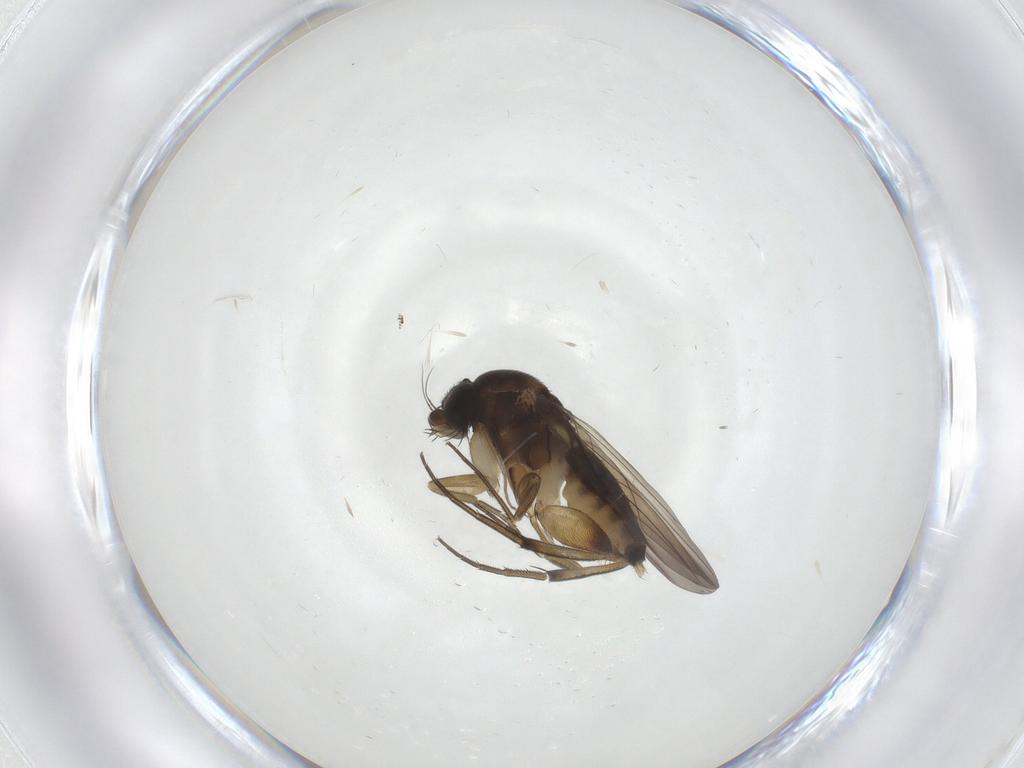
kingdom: Animalia
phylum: Arthropoda
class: Insecta
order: Diptera
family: Phoridae
